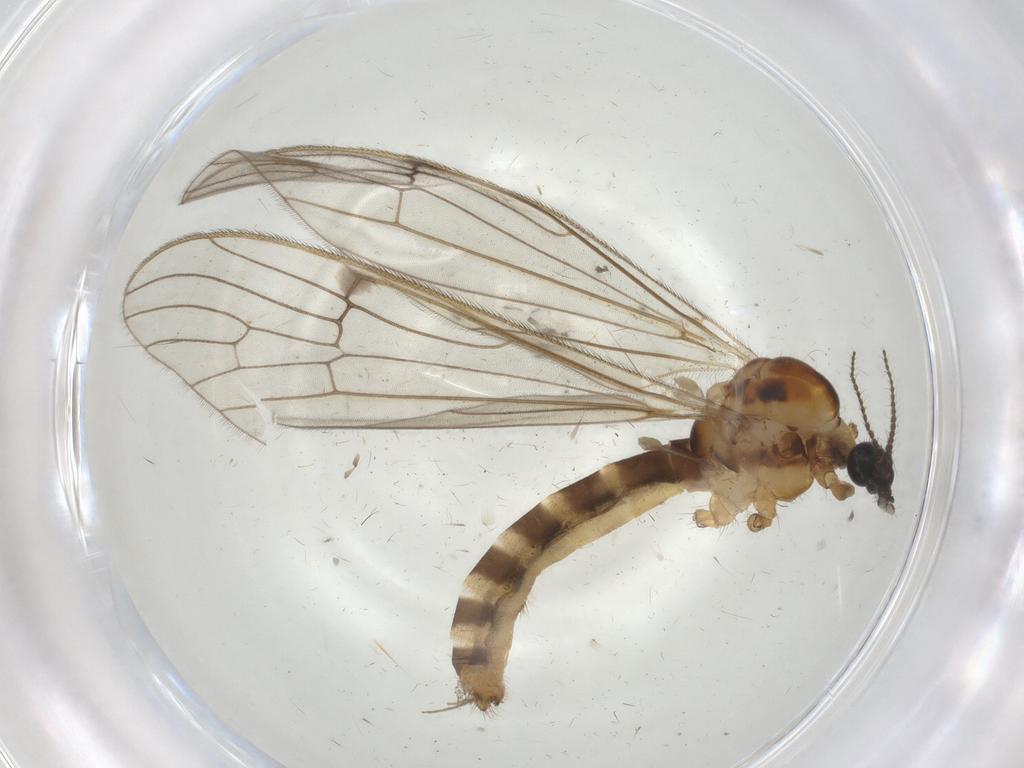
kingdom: Animalia
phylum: Arthropoda
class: Insecta
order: Diptera
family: Limoniidae
